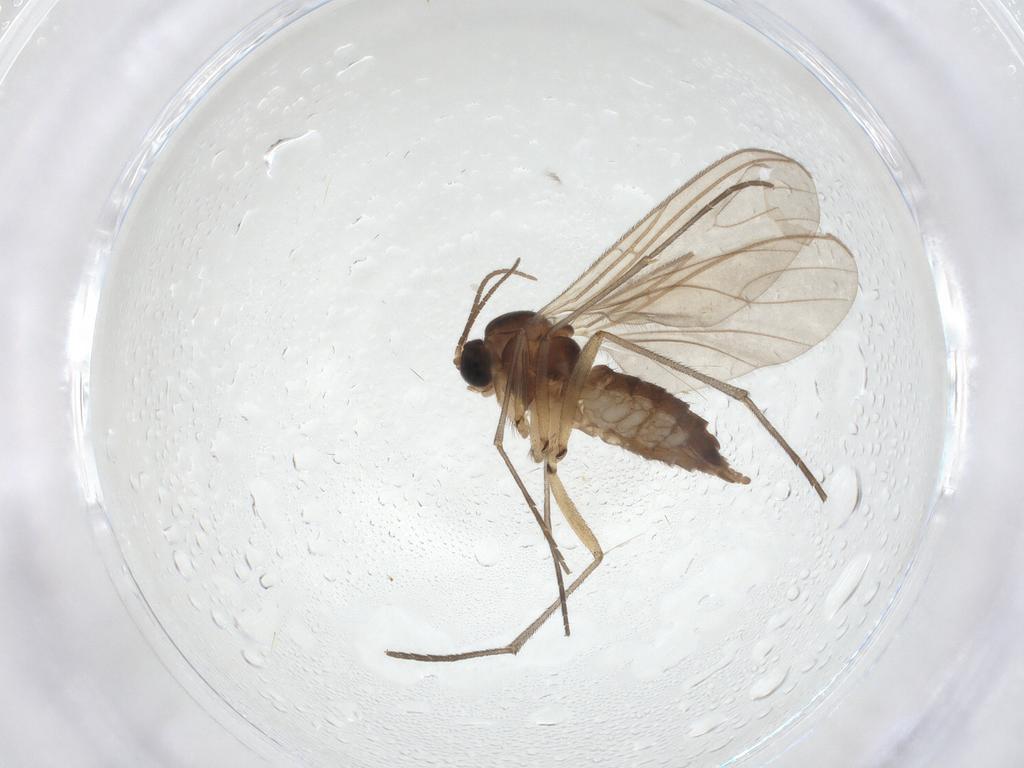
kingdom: Animalia
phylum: Arthropoda
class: Insecta
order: Diptera
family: Sciaridae
